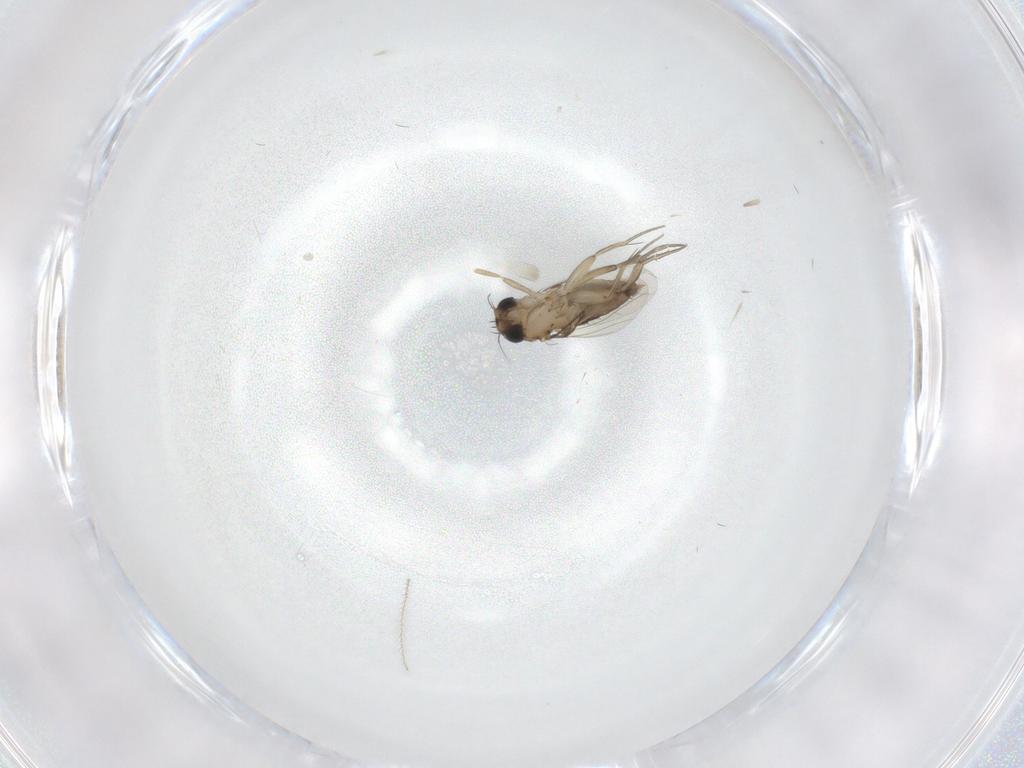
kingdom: Animalia
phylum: Arthropoda
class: Insecta
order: Diptera
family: Phoridae
